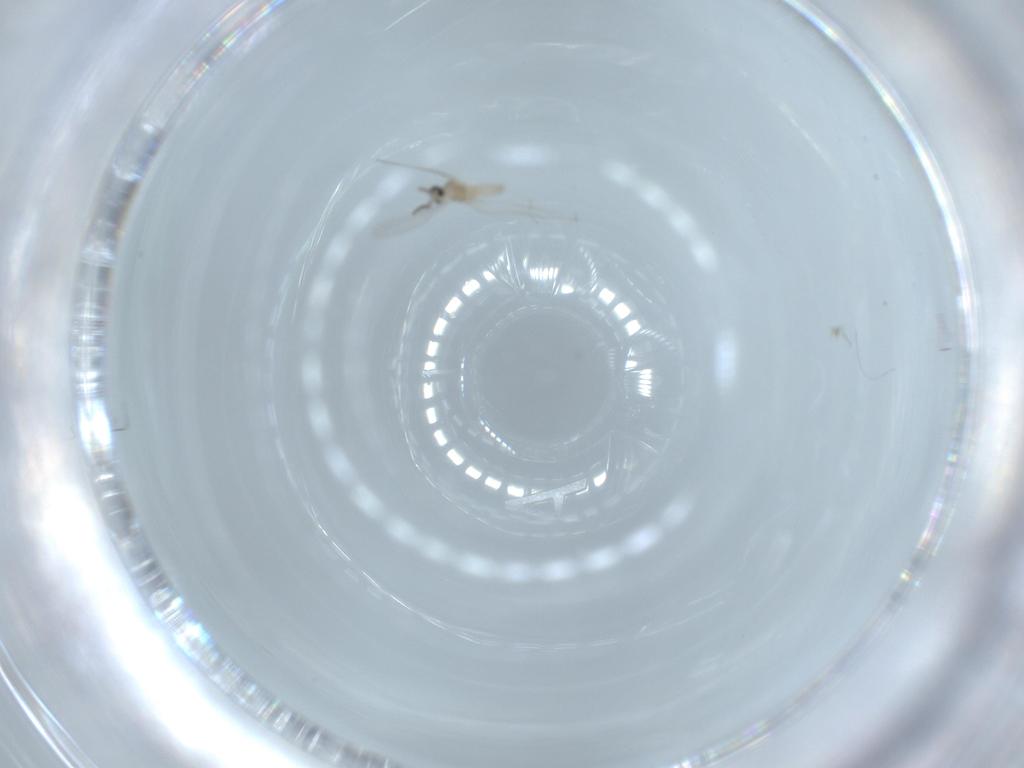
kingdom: Animalia
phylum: Arthropoda
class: Insecta
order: Diptera
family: Cecidomyiidae
